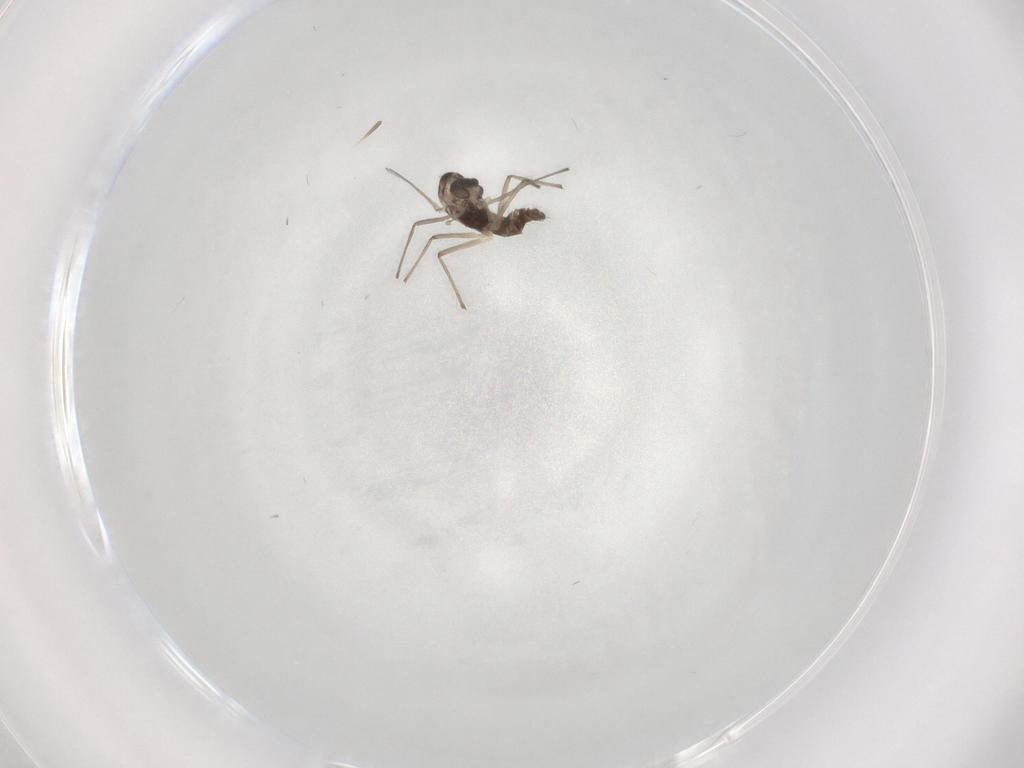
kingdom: Animalia
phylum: Arthropoda
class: Insecta
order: Diptera
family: Chironomidae
